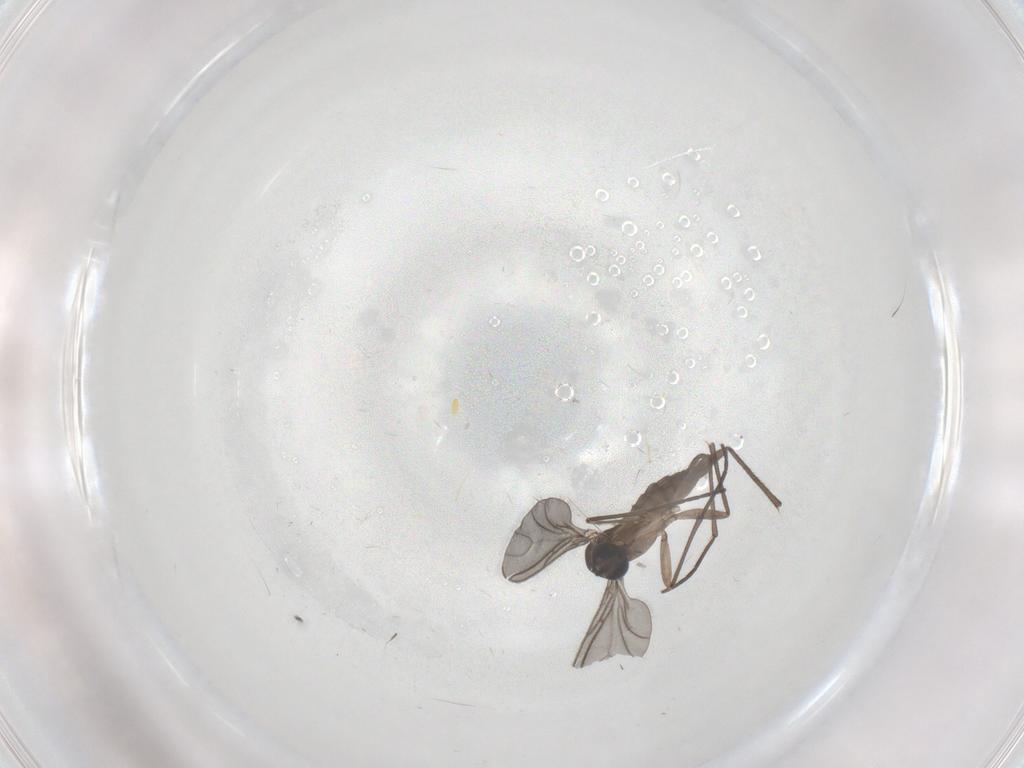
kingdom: Animalia
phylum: Arthropoda
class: Insecta
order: Diptera
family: Sciaridae
